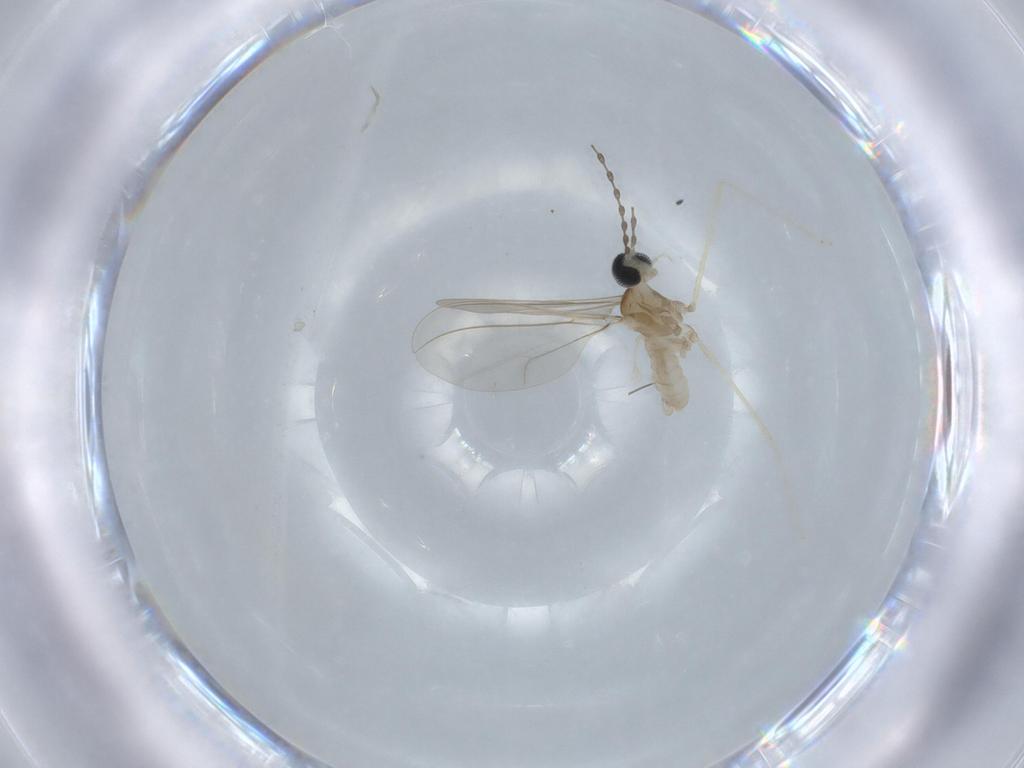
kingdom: Animalia
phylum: Arthropoda
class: Insecta
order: Diptera
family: Cecidomyiidae
